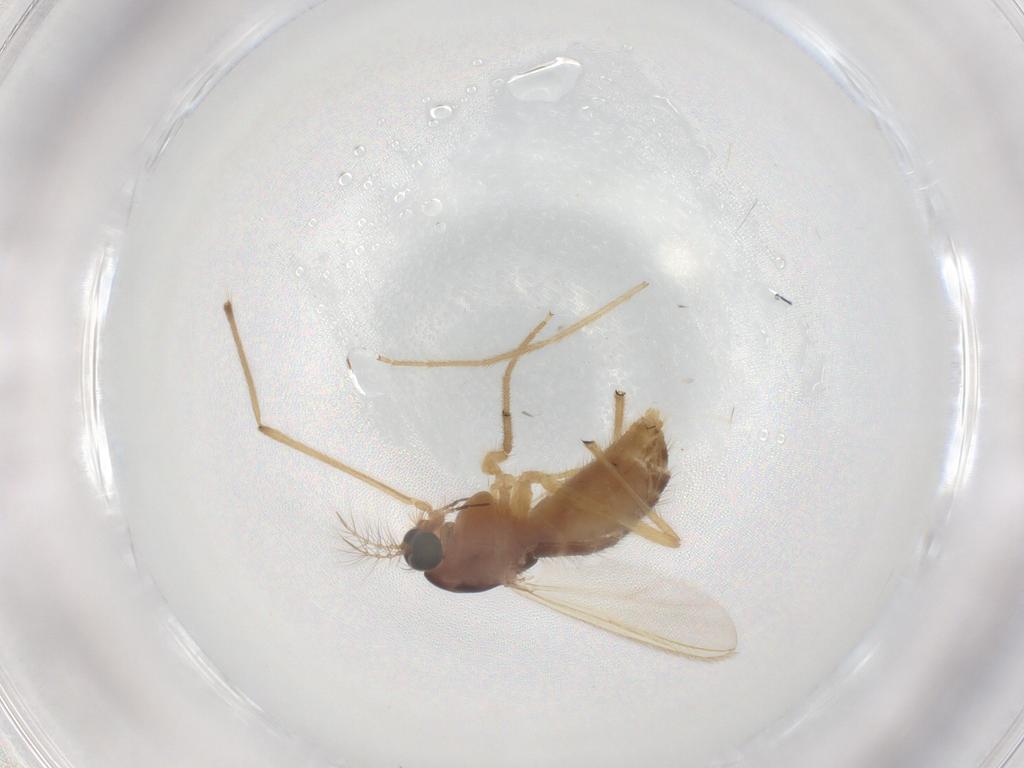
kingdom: Animalia
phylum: Arthropoda
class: Insecta
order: Diptera
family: Chironomidae
